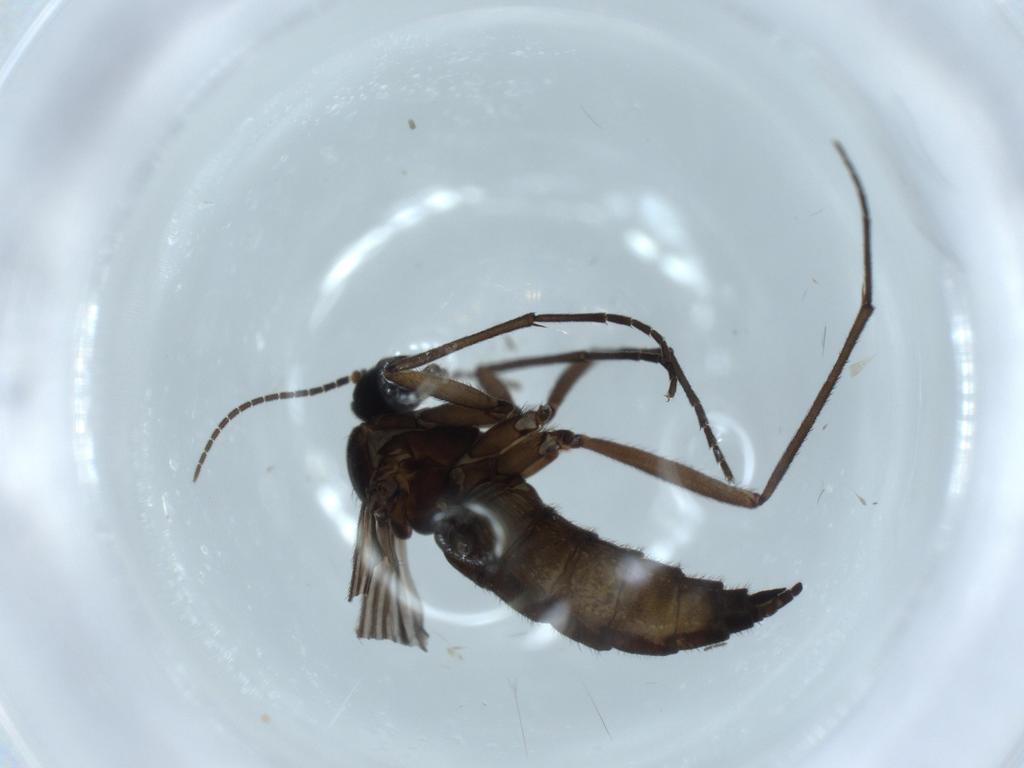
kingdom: Animalia
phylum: Arthropoda
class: Insecta
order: Diptera
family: Sciaridae
